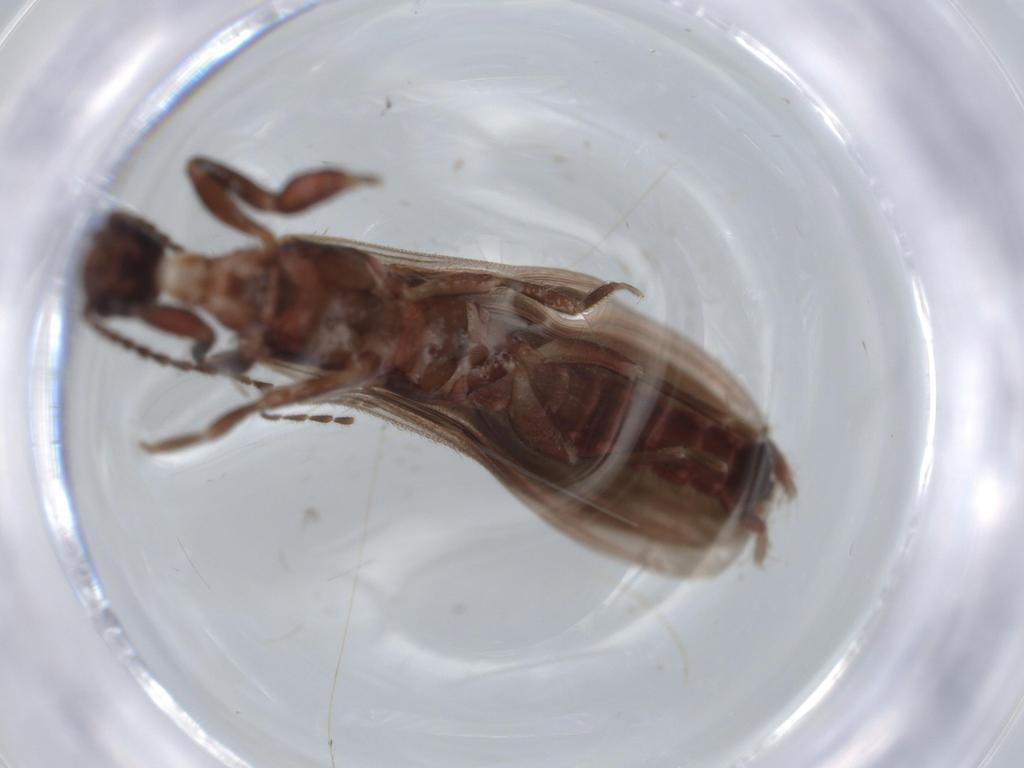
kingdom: Animalia
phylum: Arthropoda
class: Insecta
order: Embioptera
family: Anisembiidae
